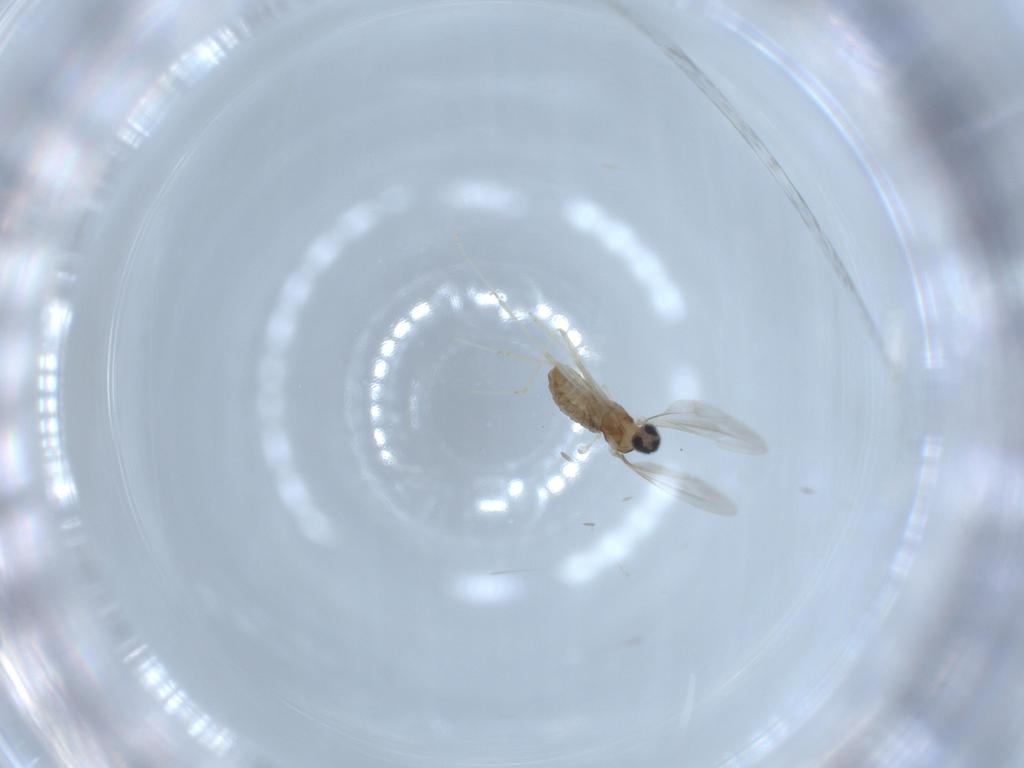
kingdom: Animalia
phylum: Arthropoda
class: Insecta
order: Diptera
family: Cecidomyiidae
